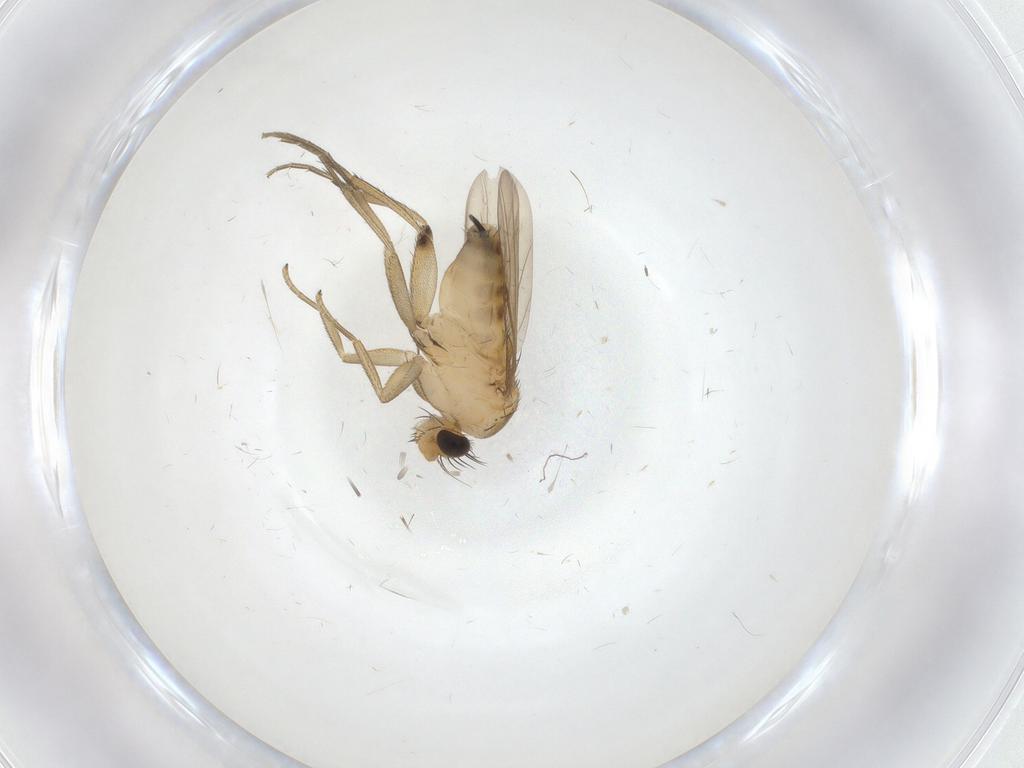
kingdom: Animalia
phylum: Arthropoda
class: Insecta
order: Diptera
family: Phoridae
